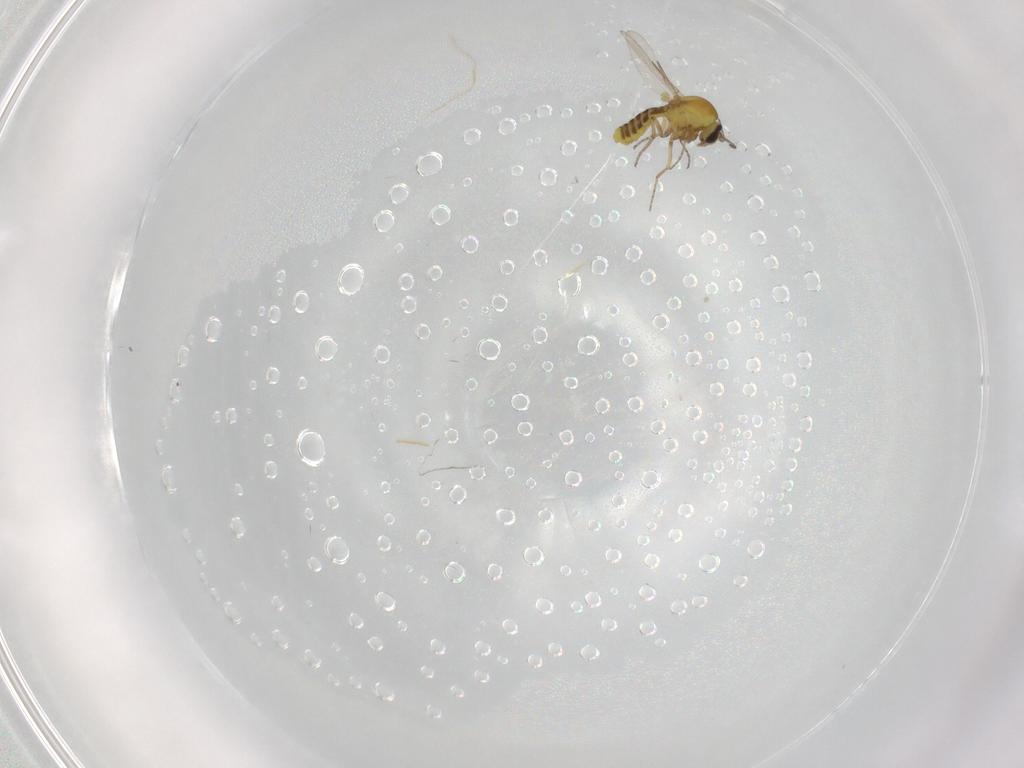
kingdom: Animalia
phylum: Arthropoda
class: Insecta
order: Diptera
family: Ceratopogonidae
